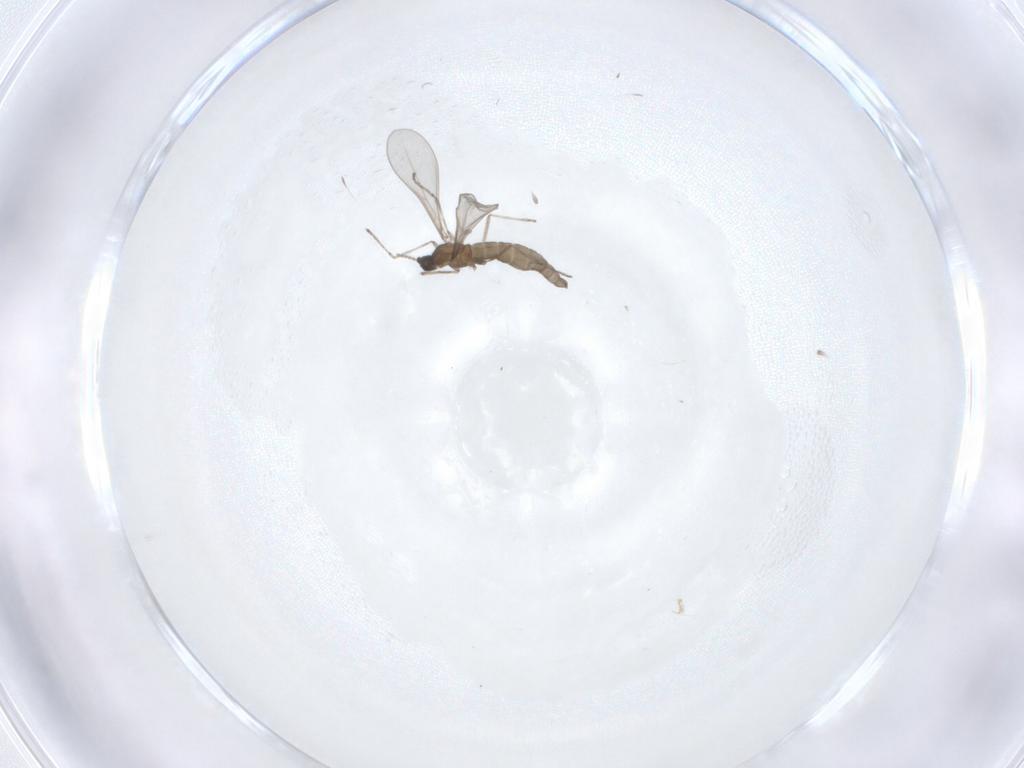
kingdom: Animalia
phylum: Arthropoda
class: Insecta
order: Diptera
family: Cecidomyiidae
